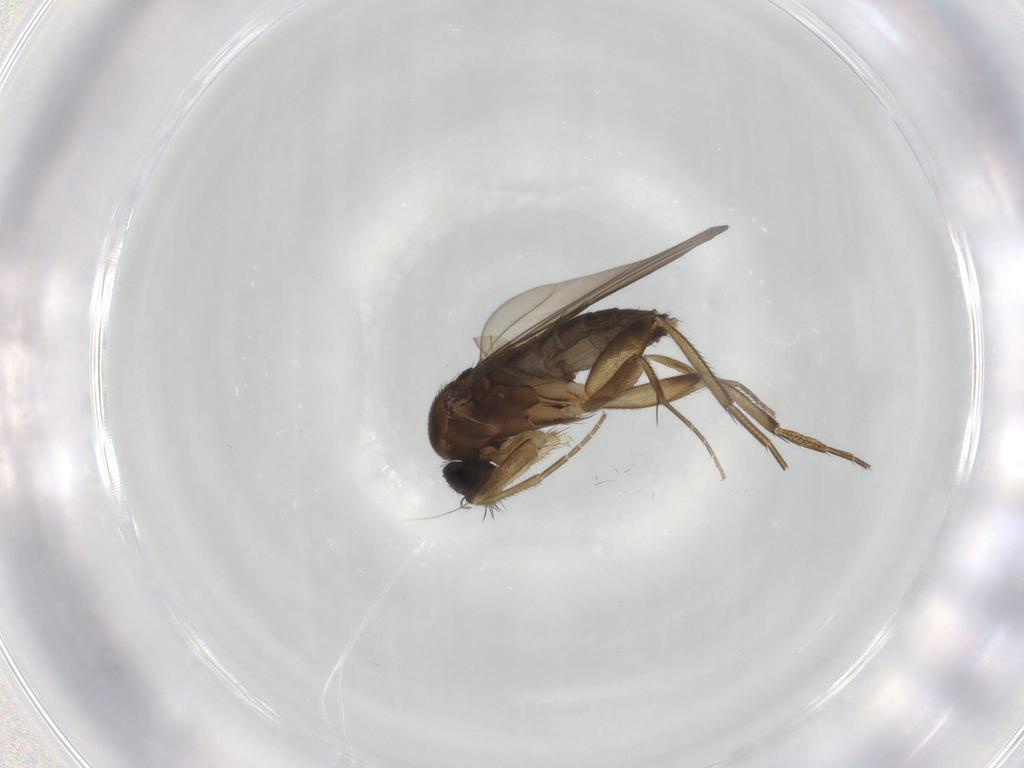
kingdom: Animalia
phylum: Arthropoda
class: Insecta
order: Diptera
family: Phoridae
